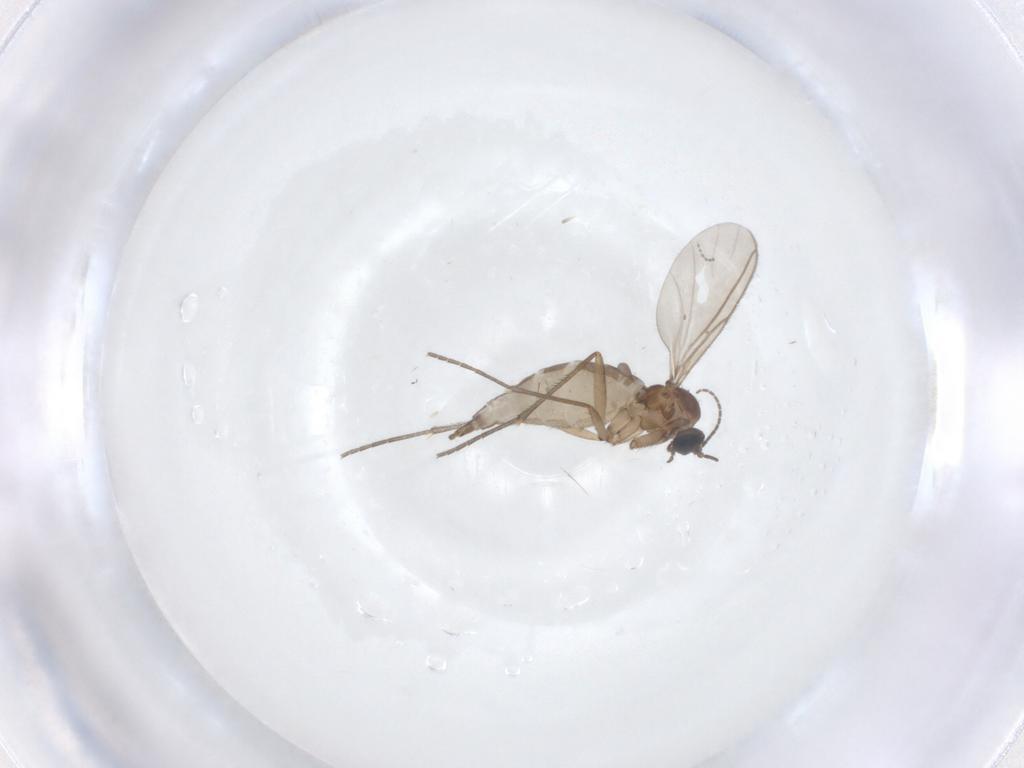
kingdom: Animalia
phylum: Arthropoda
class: Insecta
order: Diptera
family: Sciaridae
